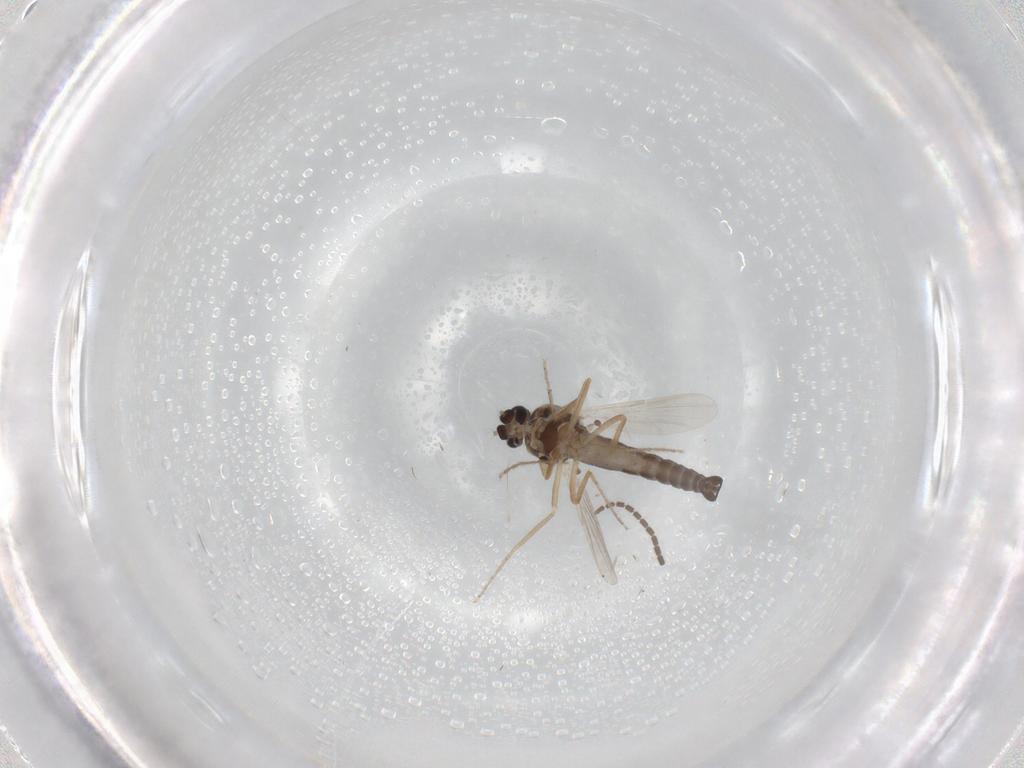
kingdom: Animalia
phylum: Arthropoda
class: Insecta
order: Diptera
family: Ceratopogonidae
